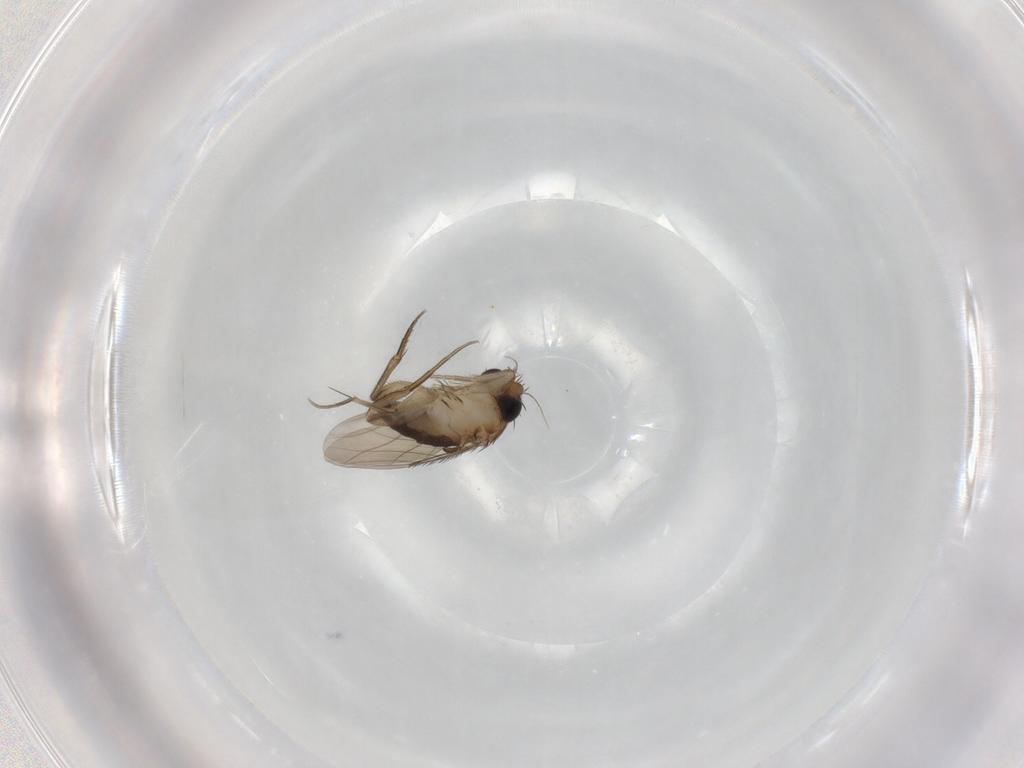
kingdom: Animalia
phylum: Arthropoda
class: Insecta
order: Diptera
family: Phoridae
